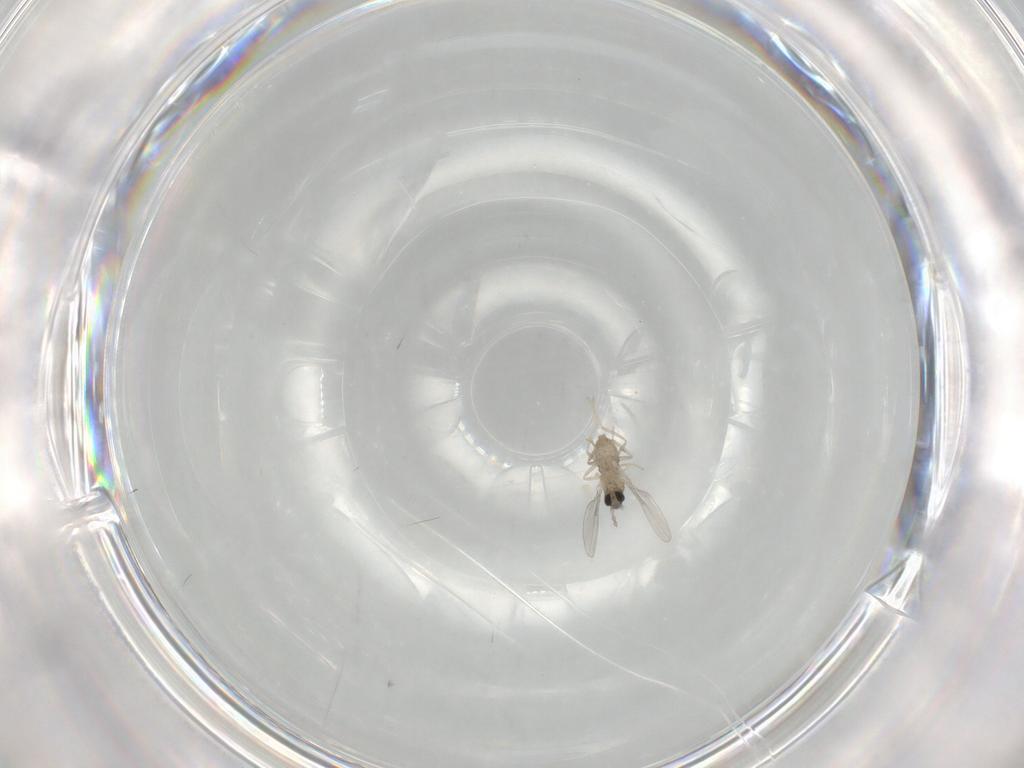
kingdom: Animalia
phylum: Arthropoda
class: Insecta
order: Diptera
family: Cecidomyiidae
